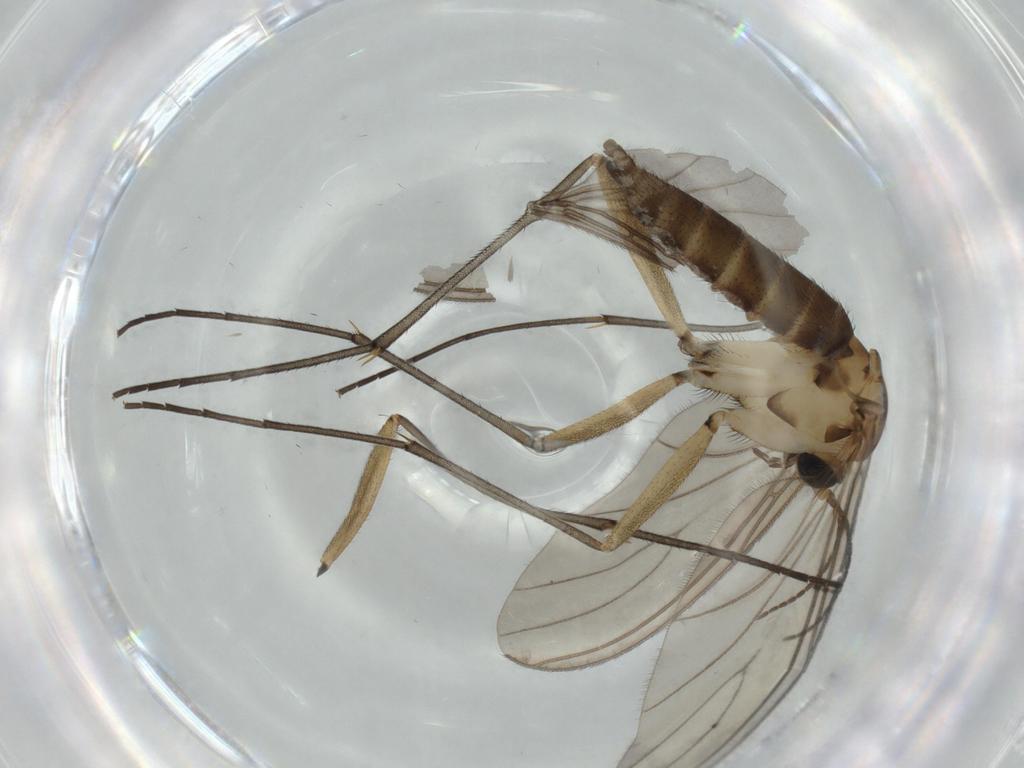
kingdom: Animalia
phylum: Arthropoda
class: Insecta
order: Diptera
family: Sciaridae
